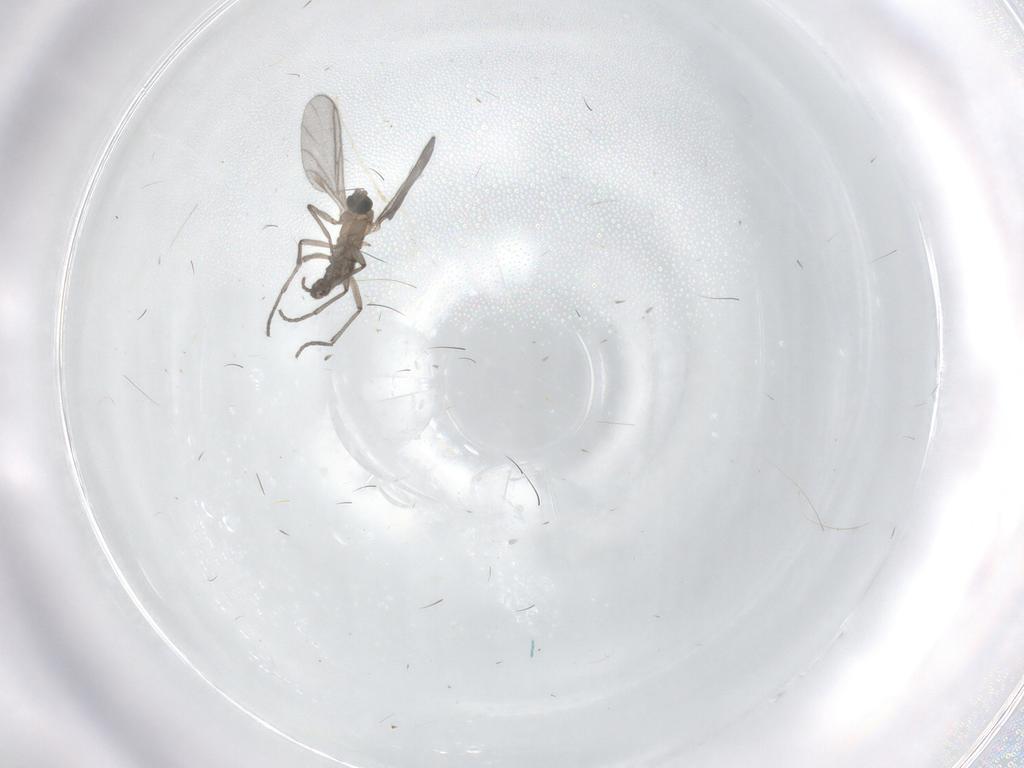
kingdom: Animalia
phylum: Arthropoda
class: Insecta
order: Diptera
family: Sciaridae
